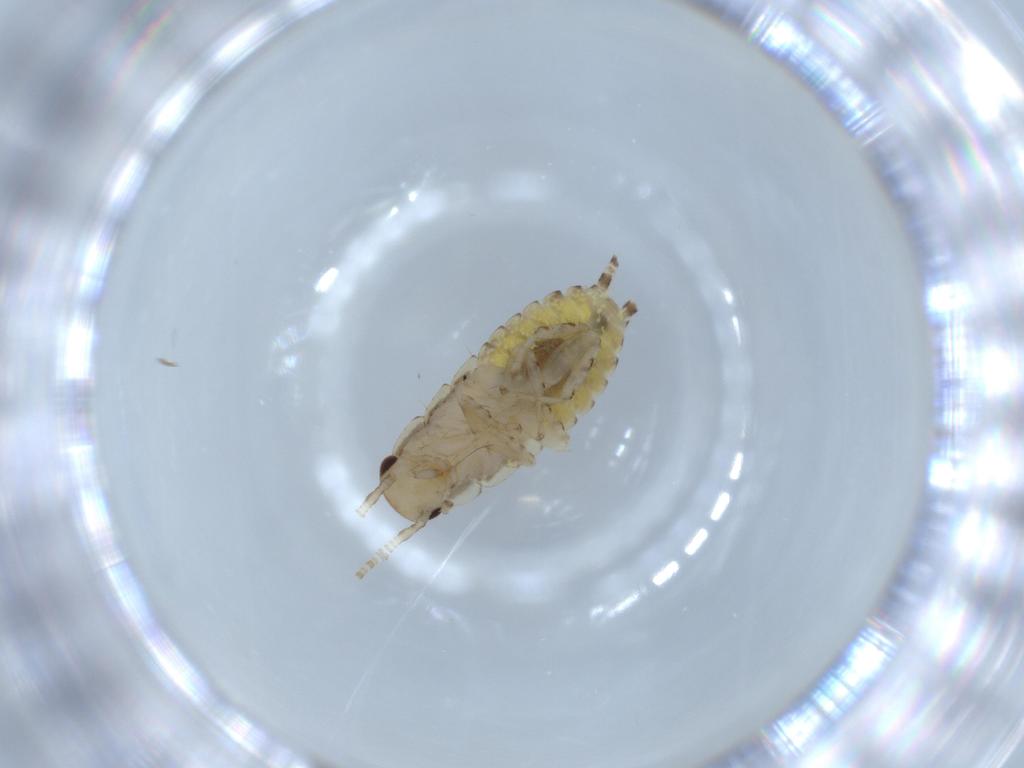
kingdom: Animalia
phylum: Arthropoda
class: Insecta
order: Blattodea
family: Ectobiidae
